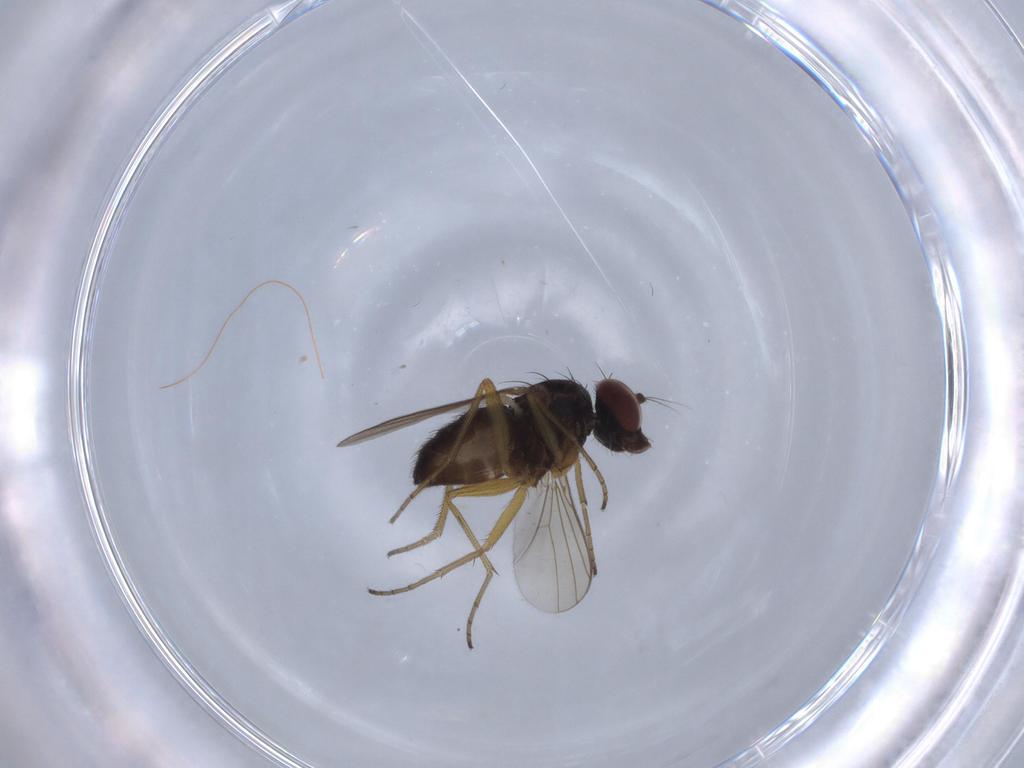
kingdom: Animalia
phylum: Arthropoda
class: Insecta
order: Diptera
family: Dolichopodidae
